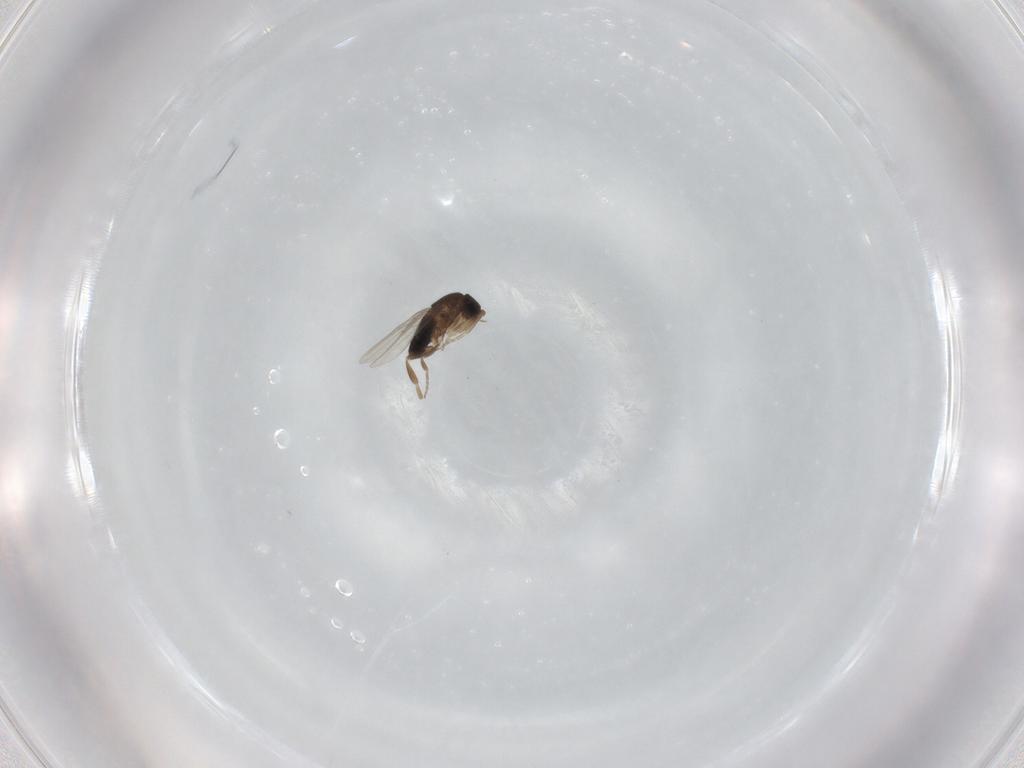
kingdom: Animalia
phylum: Arthropoda
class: Insecta
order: Diptera
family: Phoridae
